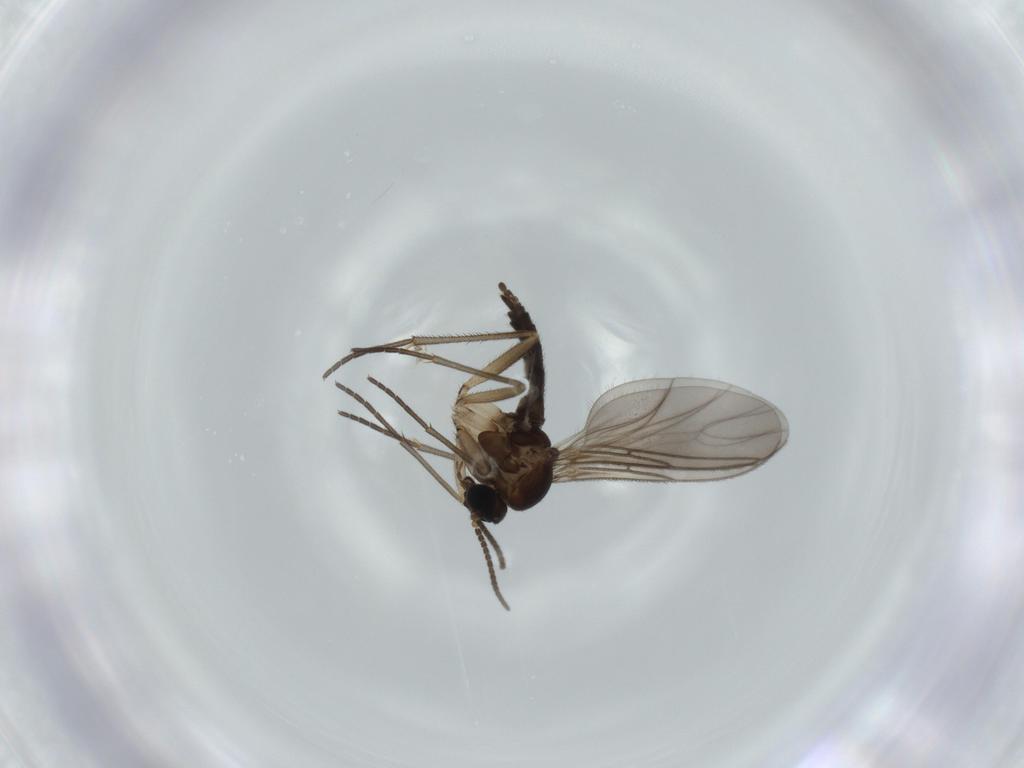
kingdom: Animalia
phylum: Arthropoda
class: Insecta
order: Diptera
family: Sciaridae
